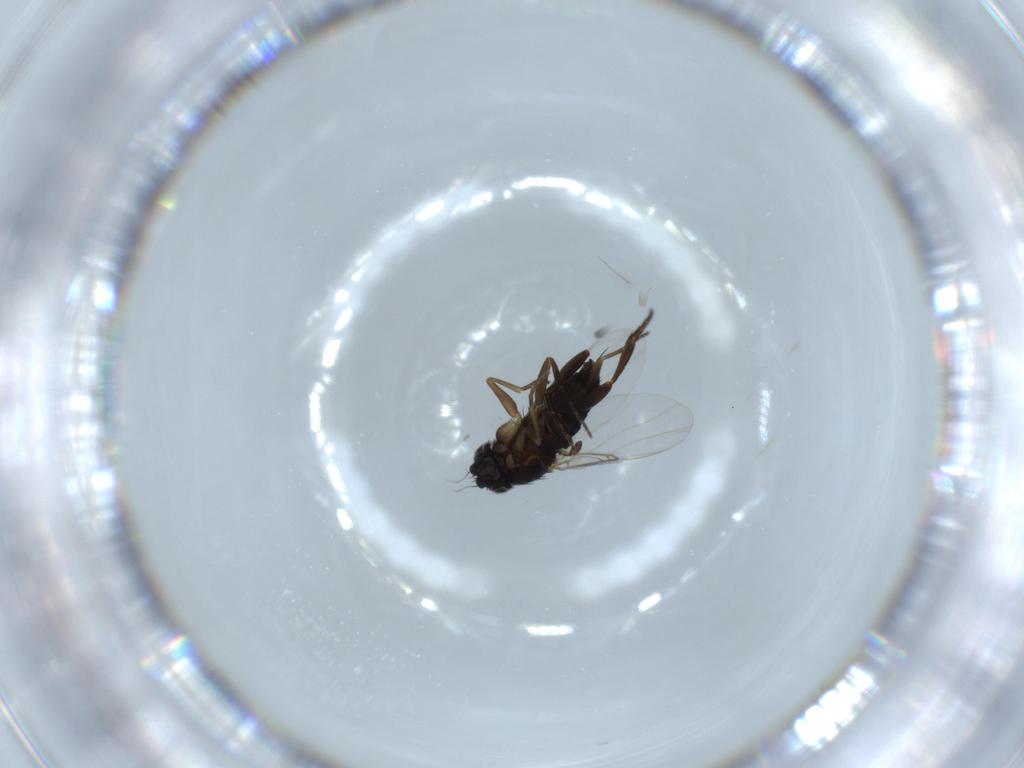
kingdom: Animalia
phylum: Arthropoda
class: Insecta
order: Diptera
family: Phoridae
